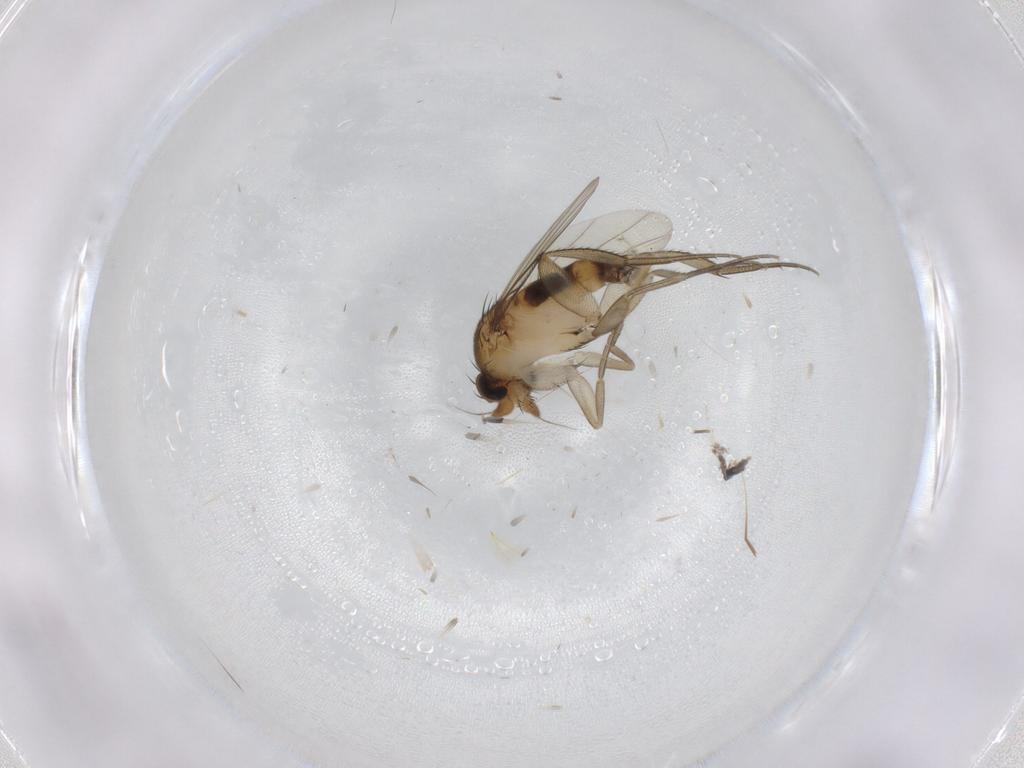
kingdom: Animalia
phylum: Arthropoda
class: Insecta
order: Diptera
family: Phoridae
